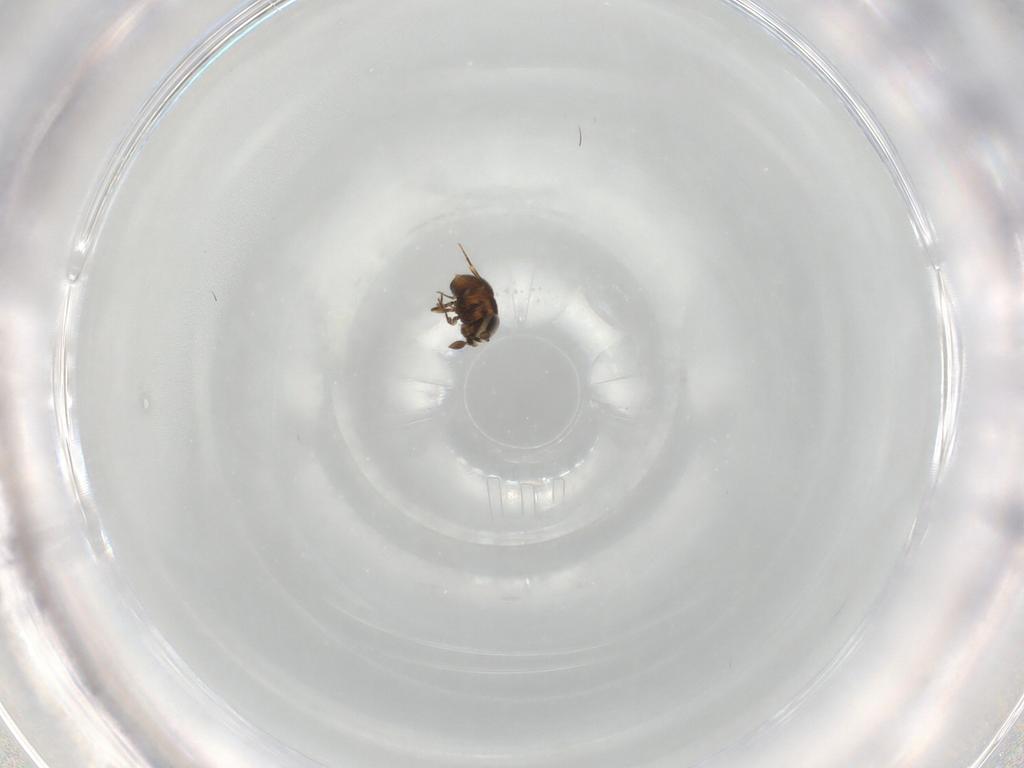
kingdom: Animalia
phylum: Arthropoda
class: Insecta
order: Hymenoptera
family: Scelionidae
